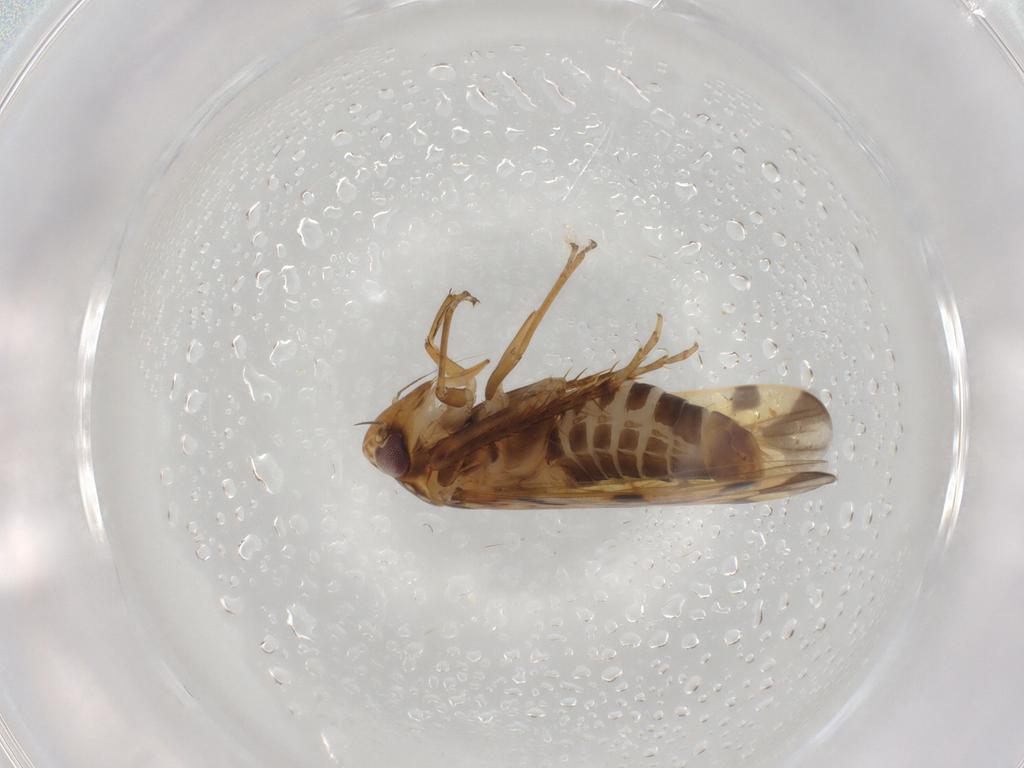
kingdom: Animalia
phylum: Arthropoda
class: Insecta
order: Hemiptera
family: Cicadellidae
